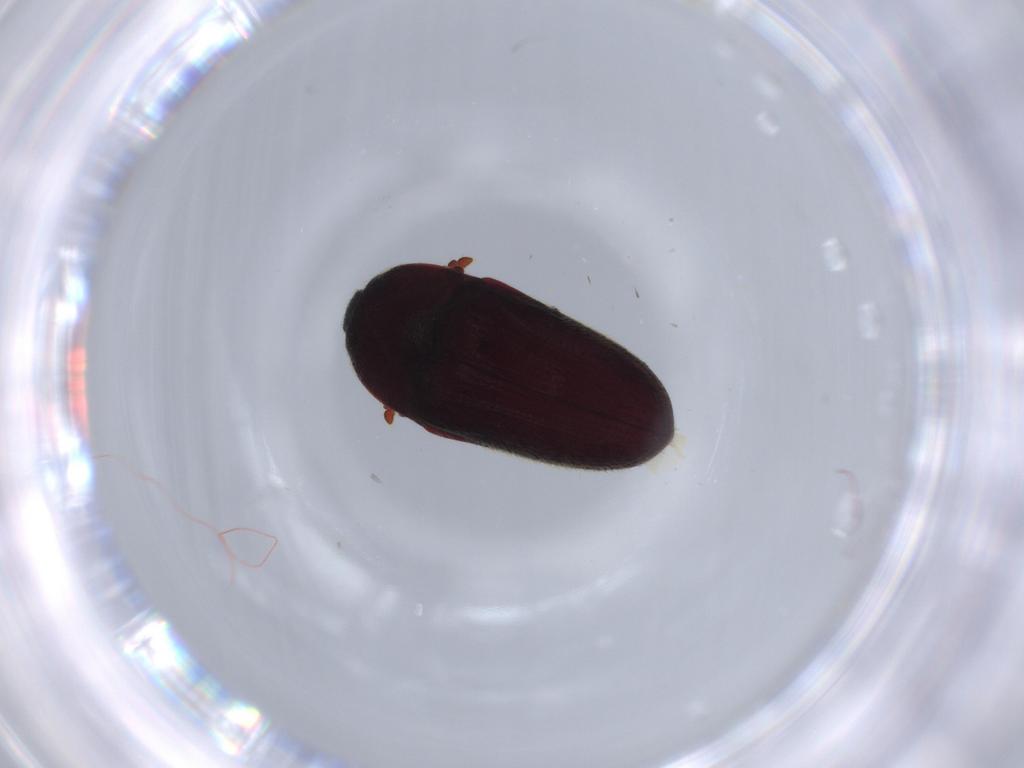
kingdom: Animalia
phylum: Arthropoda
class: Insecta
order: Coleoptera
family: Throscidae
